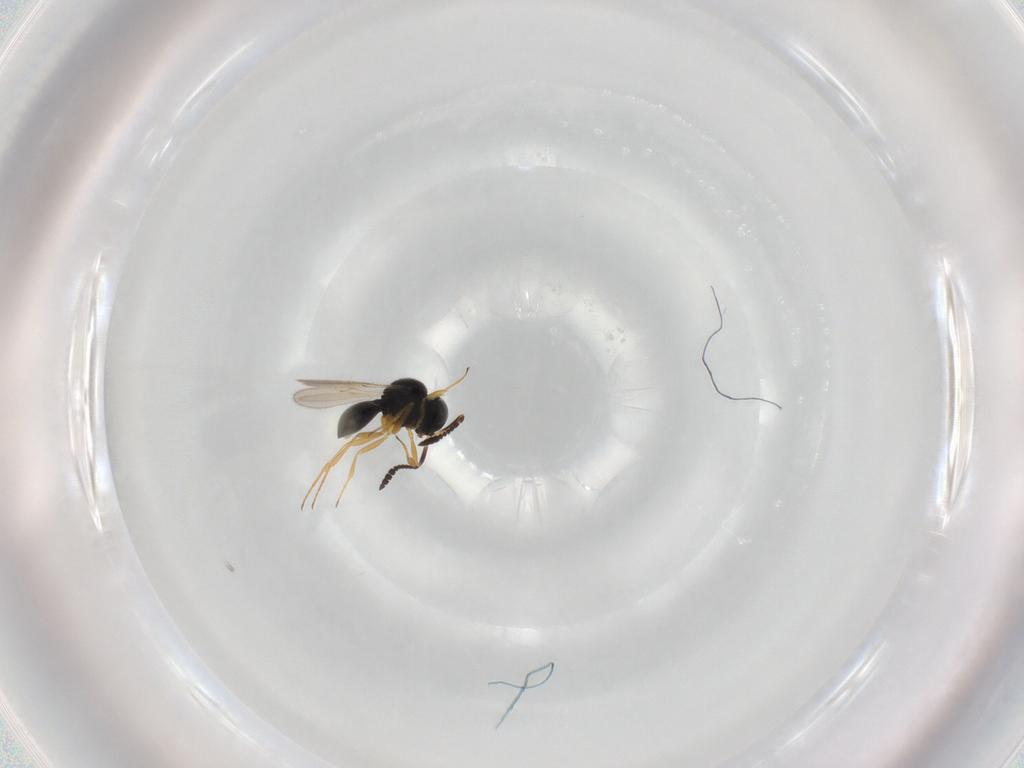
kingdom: Animalia
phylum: Arthropoda
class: Insecta
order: Hymenoptera
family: Scelionidae
